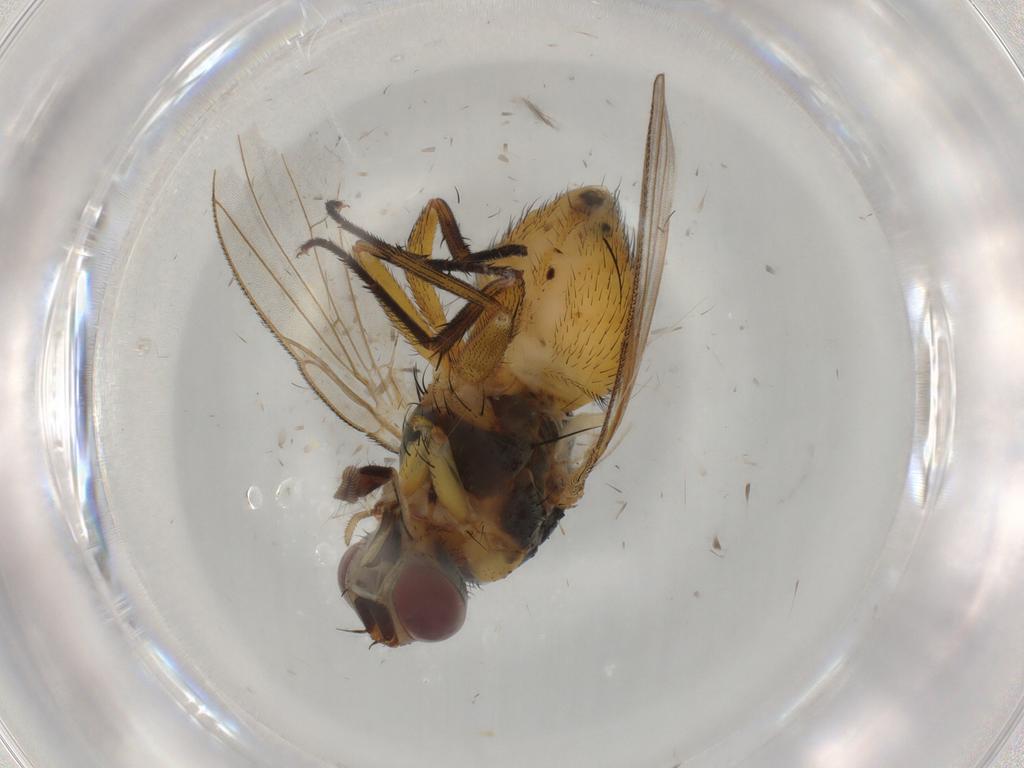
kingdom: Animalia
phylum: Arthropoda
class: Insecta
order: Diptera
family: Muscidae
